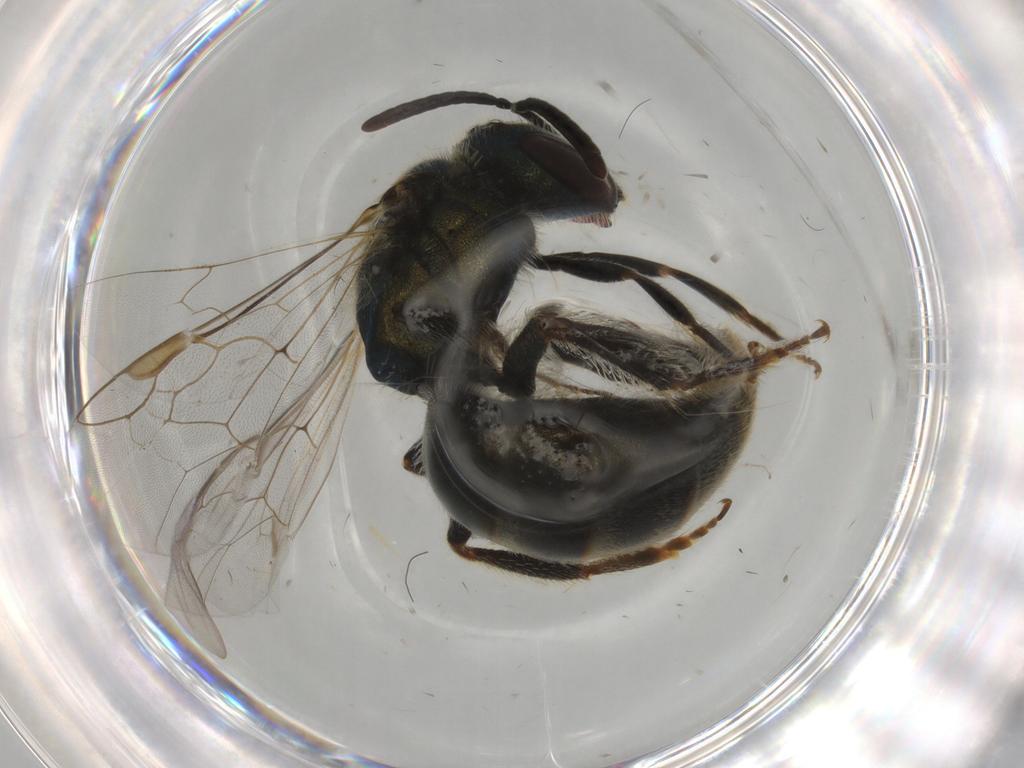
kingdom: Animalia
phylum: Arthropoda
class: Insecta
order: Hymenoptera
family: Halictidae
